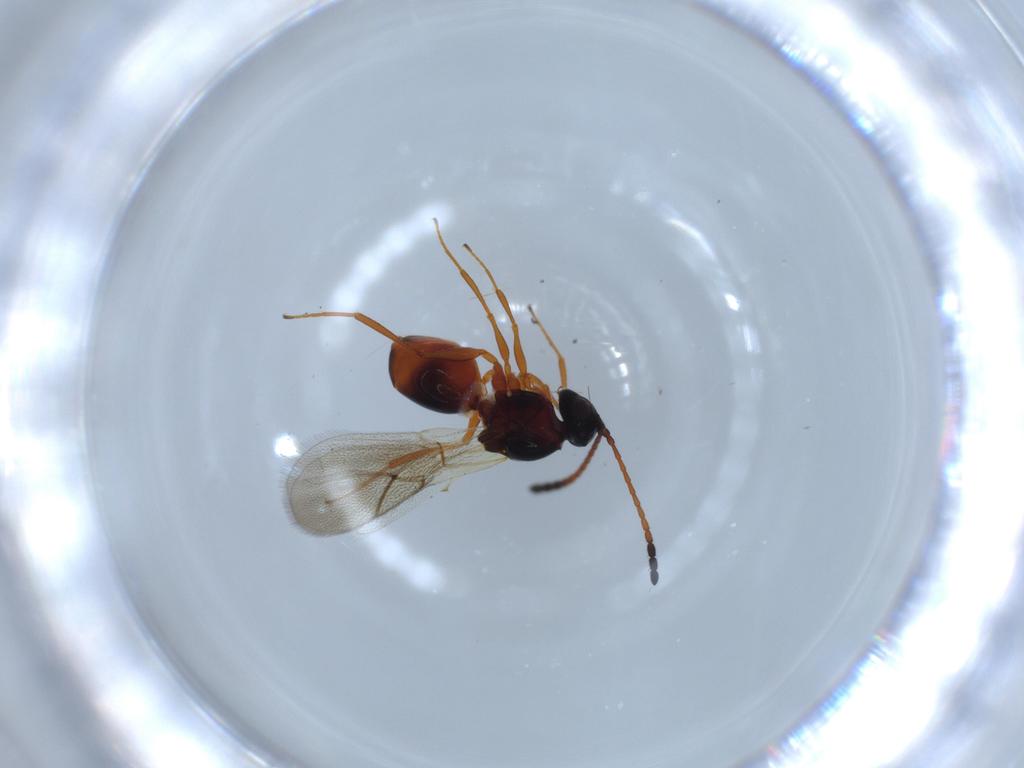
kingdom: Animalia
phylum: Arthropoda
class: Insecta
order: Hymenoptera
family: Figitidae
